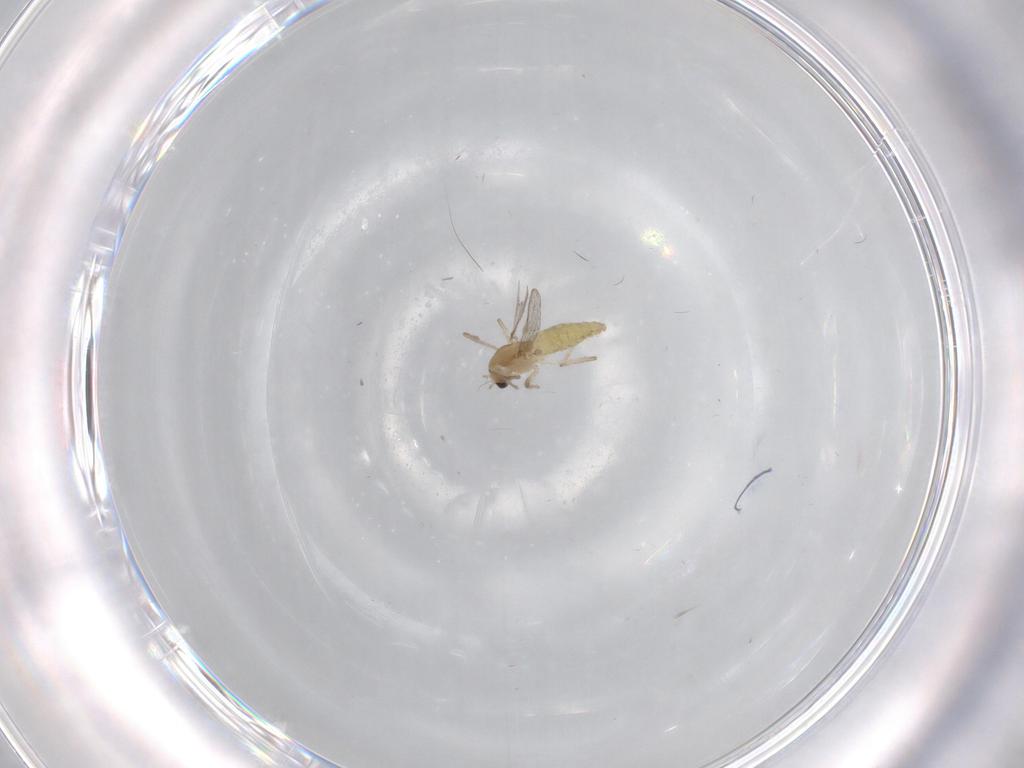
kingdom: Animalia
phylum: Arthropoda
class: Insecta
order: Diptera
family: Chironomidae
